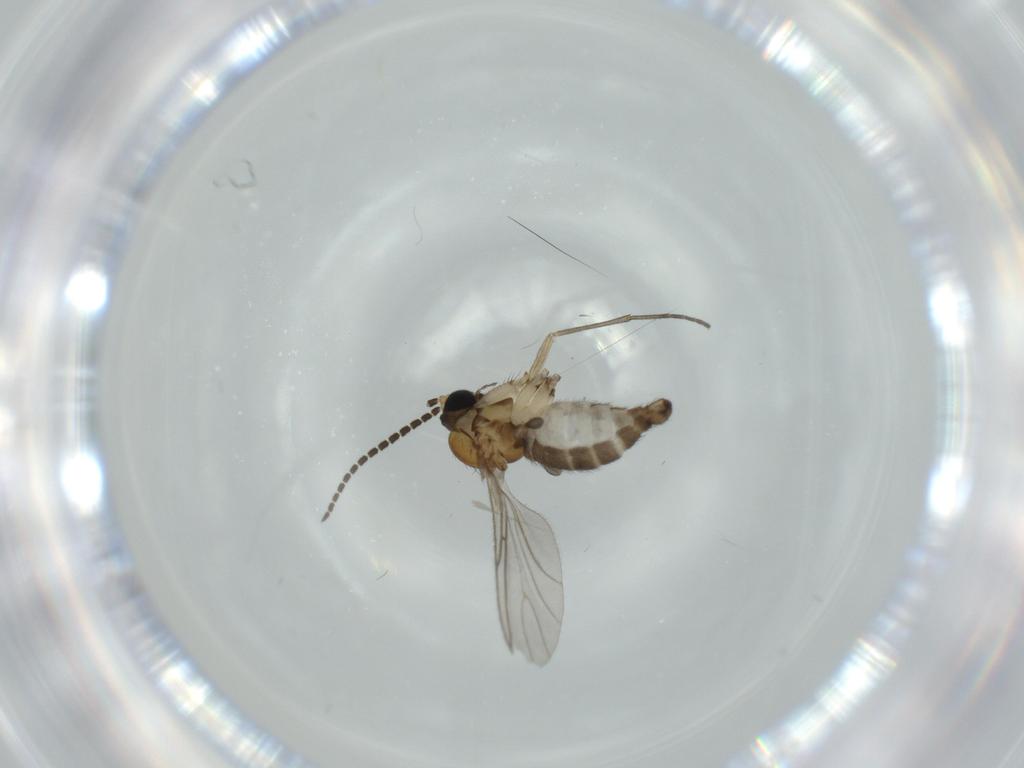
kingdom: Animalia
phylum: Arthropoda
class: Insecta
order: Diptera
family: Sciaridae
